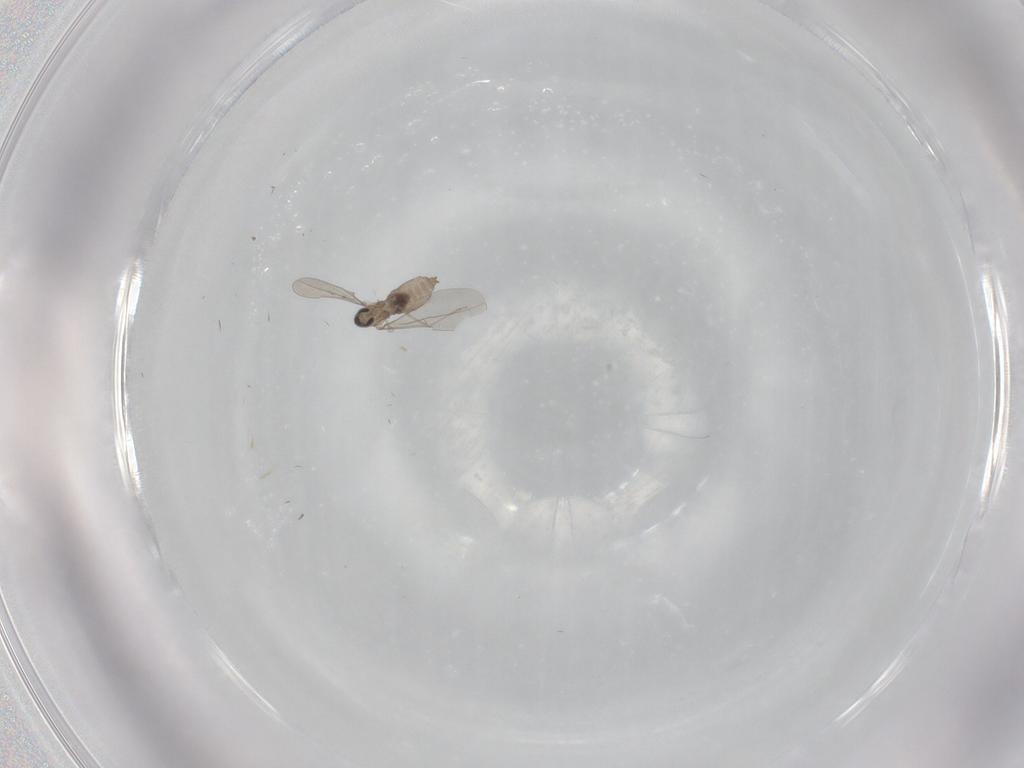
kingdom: Animalia
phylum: Arthropoda
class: Insecta
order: Diptera
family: Cecidomyiidae
